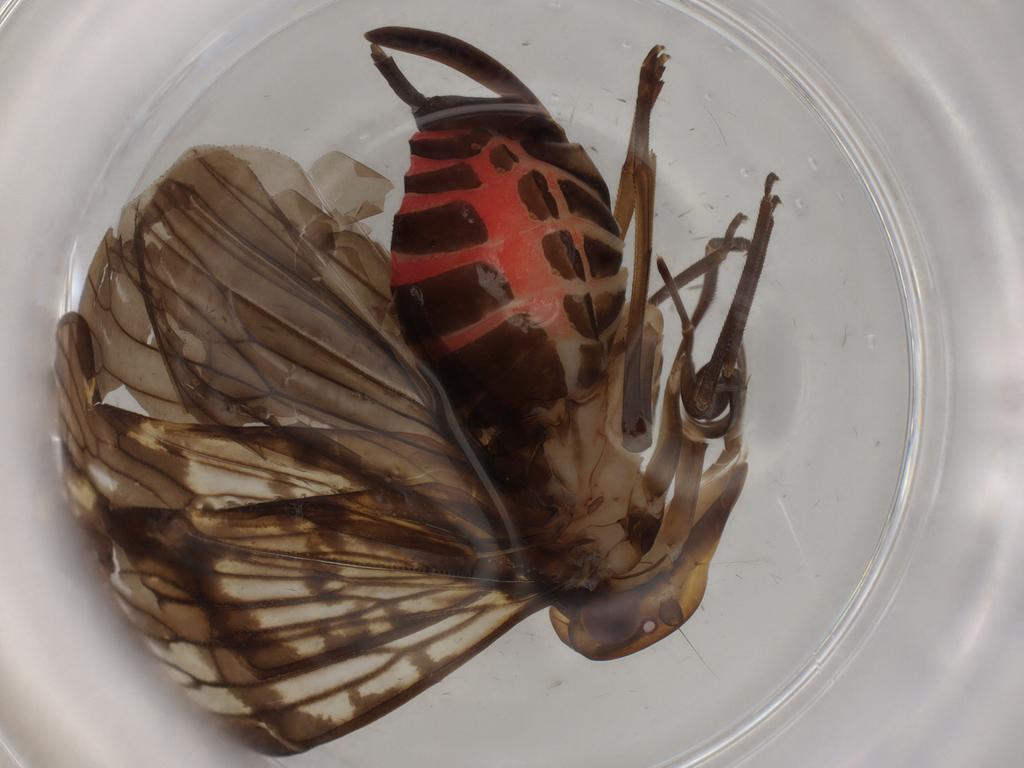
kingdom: Animalia
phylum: Arthropoda
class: Insecta
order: Hemiptera
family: Cixiidae
